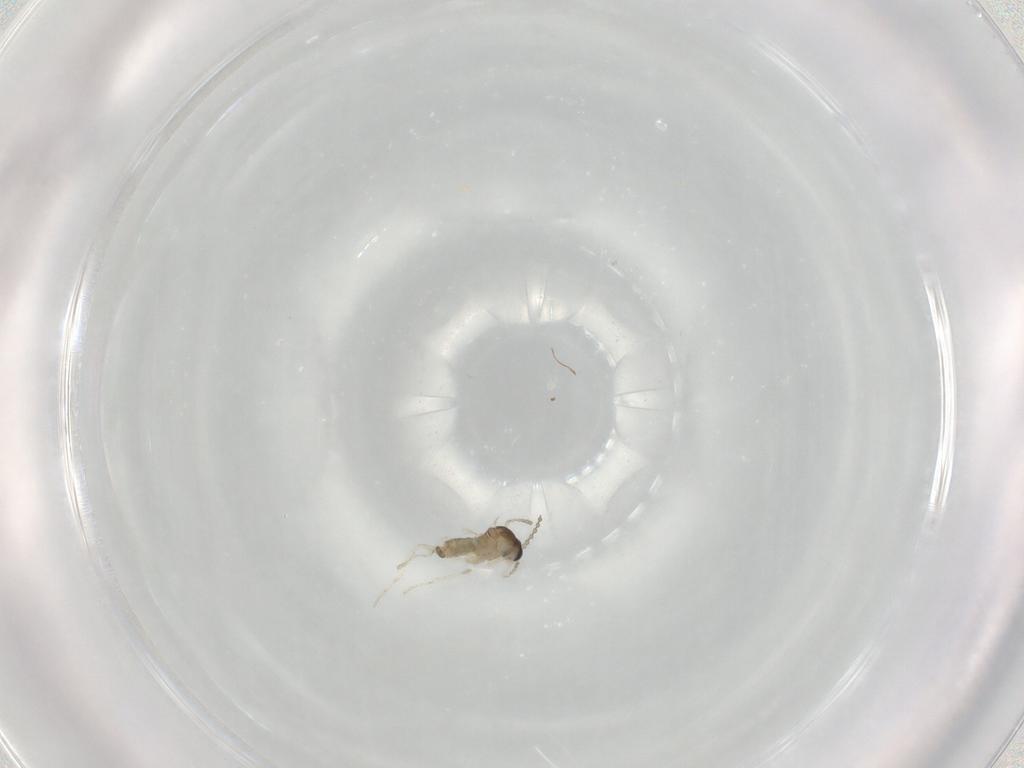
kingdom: Animalia
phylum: Arthropoda
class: Insecta
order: Diptera
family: Cecidomyiidae
